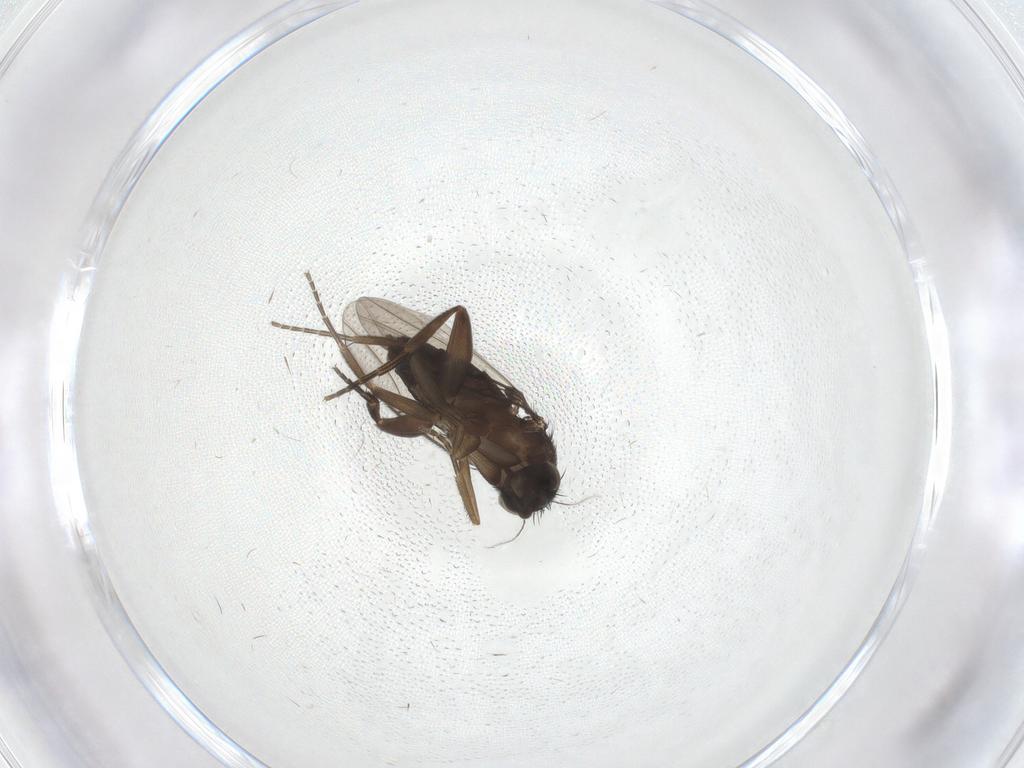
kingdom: Animalia
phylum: Arthropoda
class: Insecta
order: Diptera
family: Phoridae
